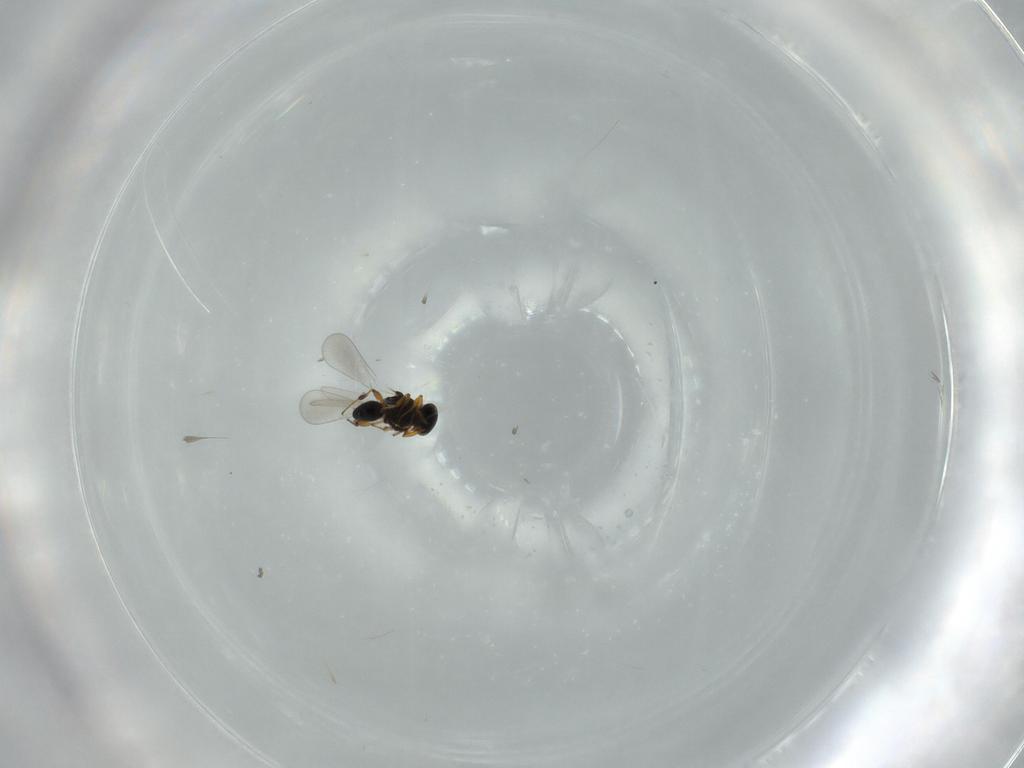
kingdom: Animalia
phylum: Arthropoda
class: Insecta
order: Hymenoptera
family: Platygastridae
